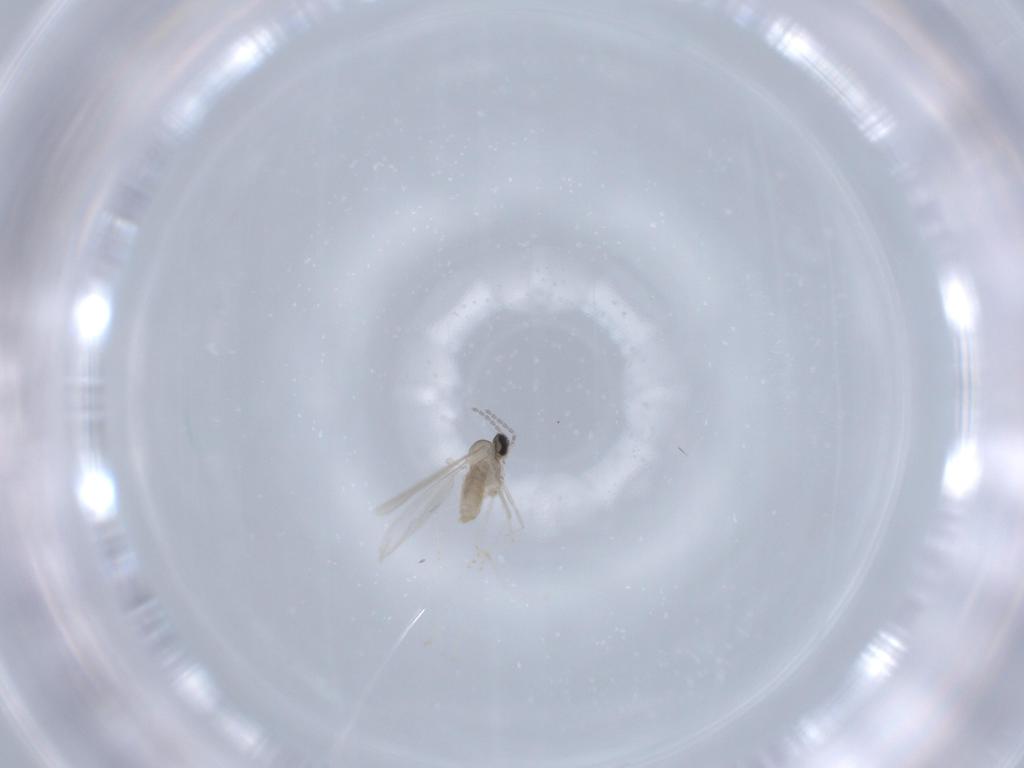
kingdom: Animalia
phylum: Arthropoda
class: Insecta
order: Diptera
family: Cecidomyiidae
